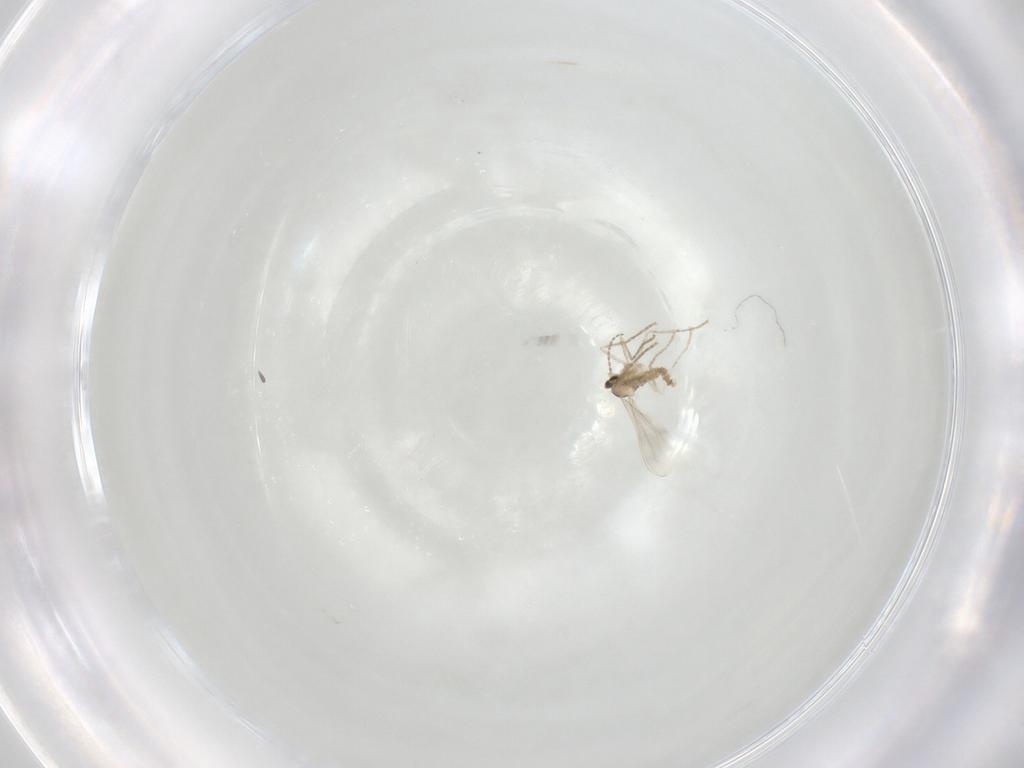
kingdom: Animalia
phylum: Arthropoda
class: Insecta
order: Diptera
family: Cecidomyiidae
